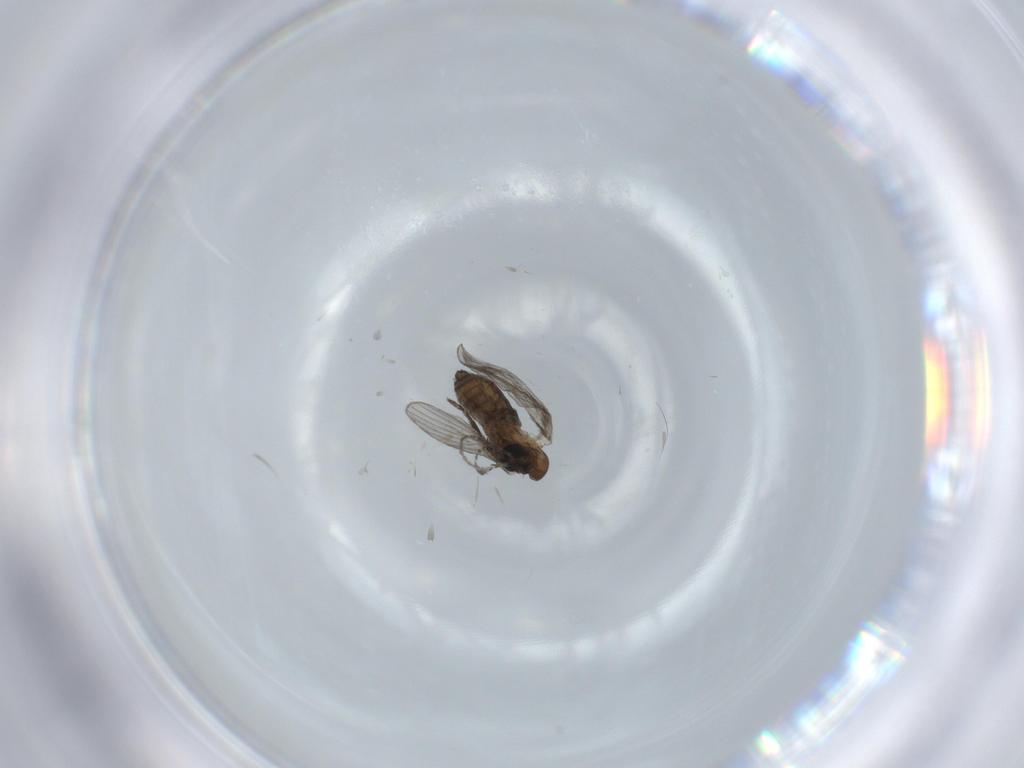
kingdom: Animalia
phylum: Arthropoda
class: Insecta
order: Diptera
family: Psychodidae
